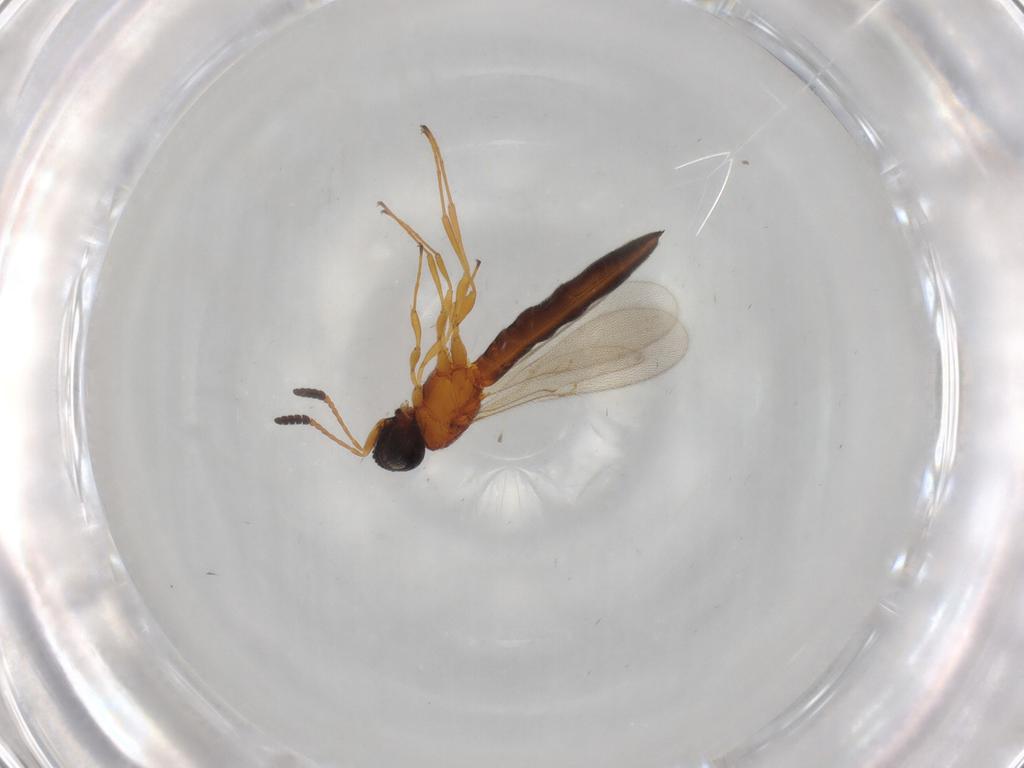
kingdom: Animalia
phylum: Arthropoda
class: Insecta
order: Hymenoptera
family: Scelionidae
